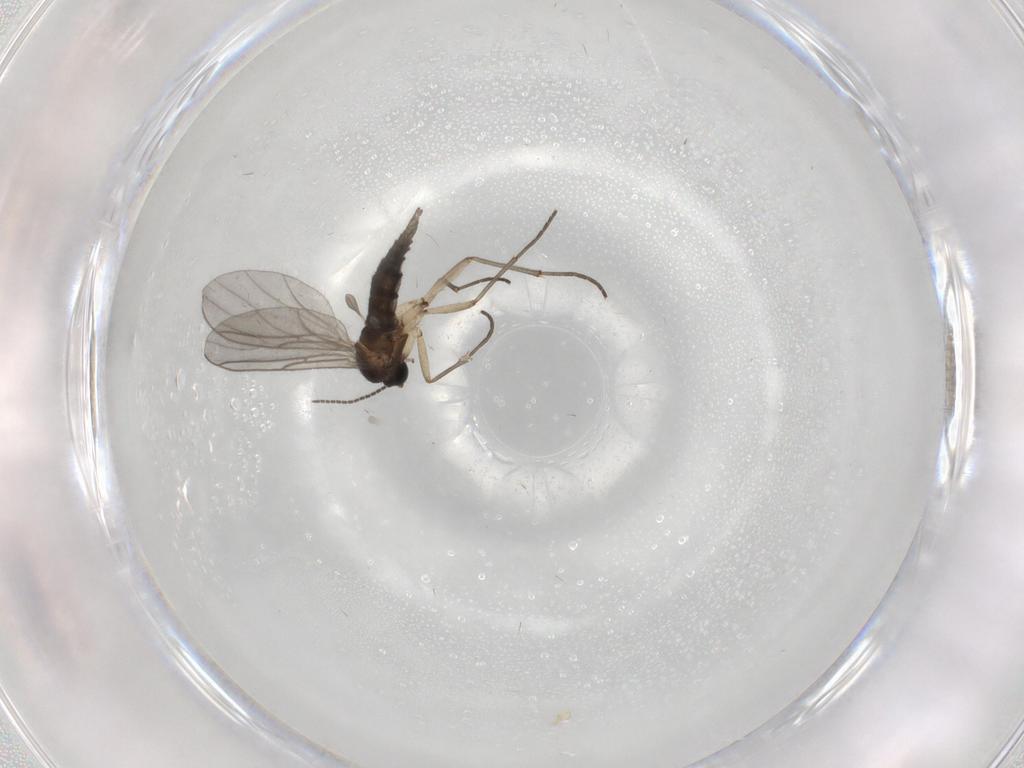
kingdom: Animalia
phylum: Arthropoda
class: Insecta
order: Diptera
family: Sciaridae
